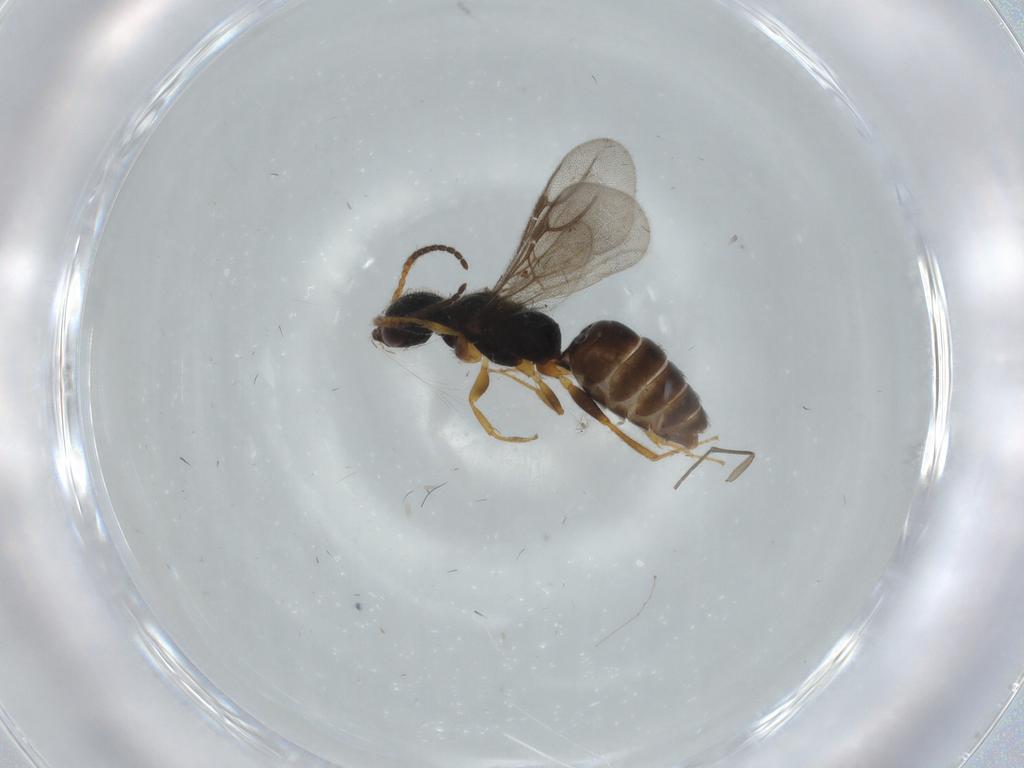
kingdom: Animalia
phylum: Arthropoda
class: Insecta
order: Hymenoptera
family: Bethylidae
